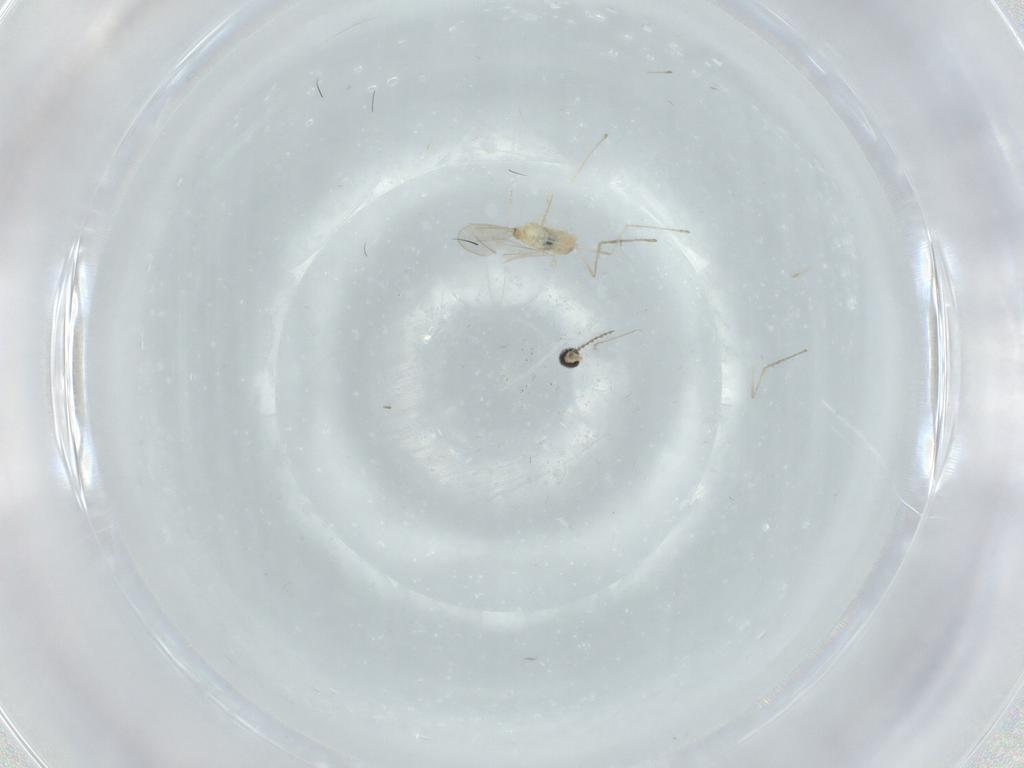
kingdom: Animalia
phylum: Arthropoda
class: Insecta
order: Diptera
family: Cecidomyiidae
